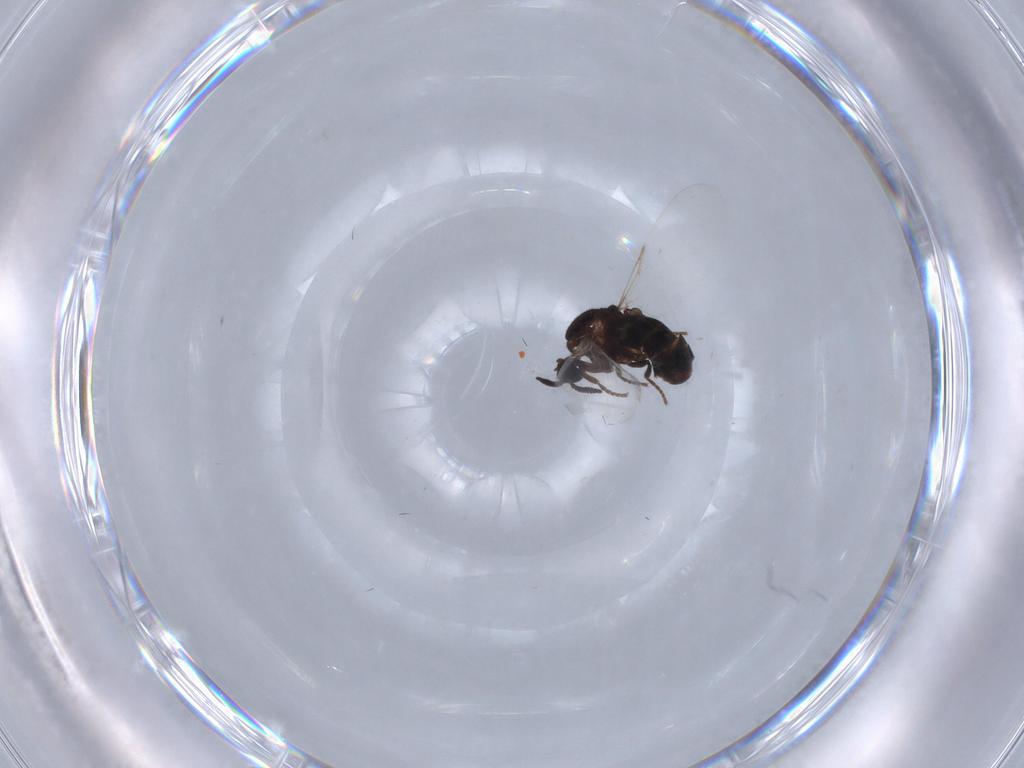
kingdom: Animalia
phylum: Arthropoda
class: Insecta
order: Diptera
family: Scatopsidae
